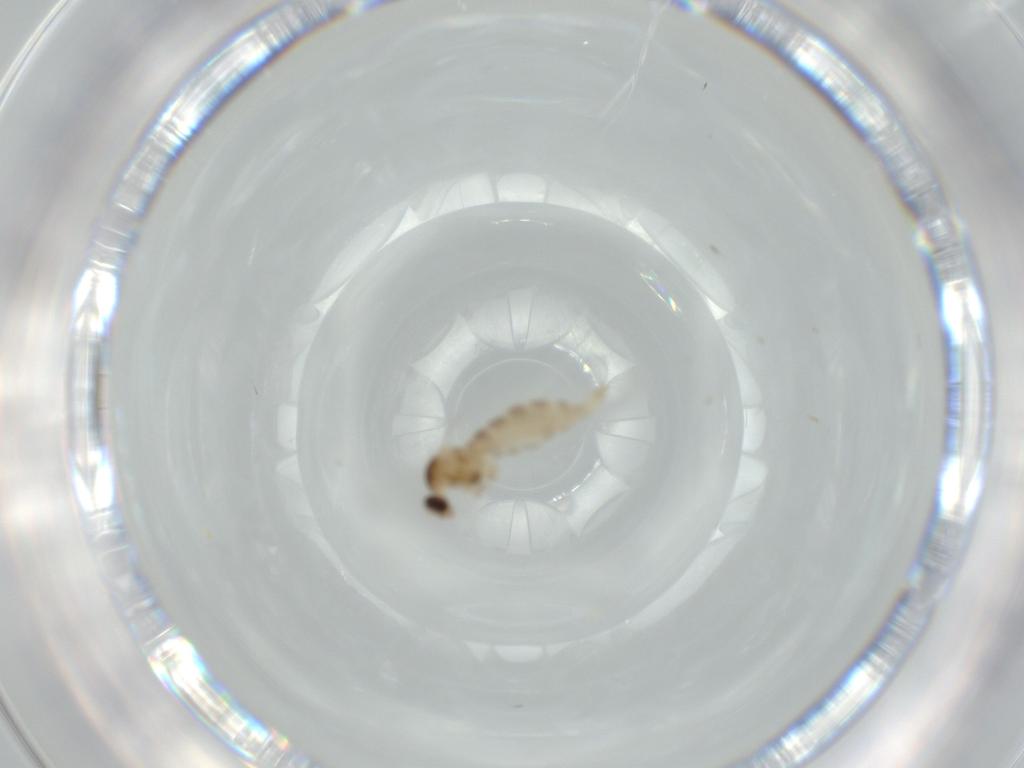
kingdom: Animalia
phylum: Arthropoda
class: Insecta
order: Diptera
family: Cecidomyiidae
